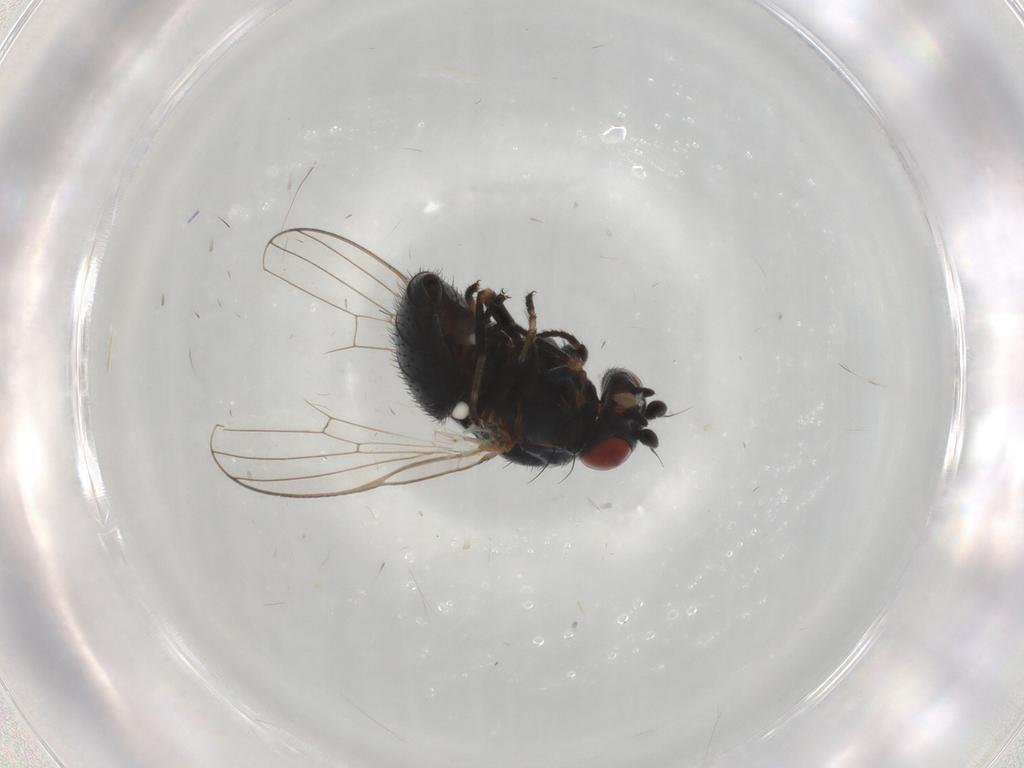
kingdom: Animalia
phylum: Arthropoda
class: Insecta
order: Diptera
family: Chamaemyiidae
